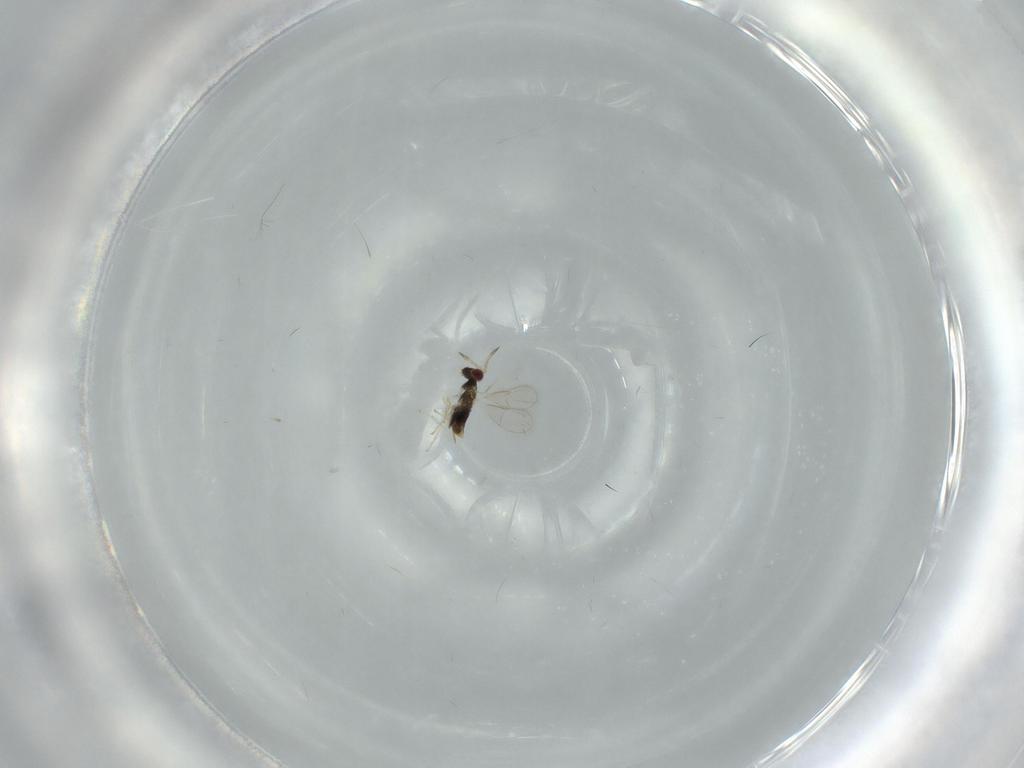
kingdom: Animalia
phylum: Arthropoda
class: Insecta
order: Hymenoptera
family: Aphelinidae
